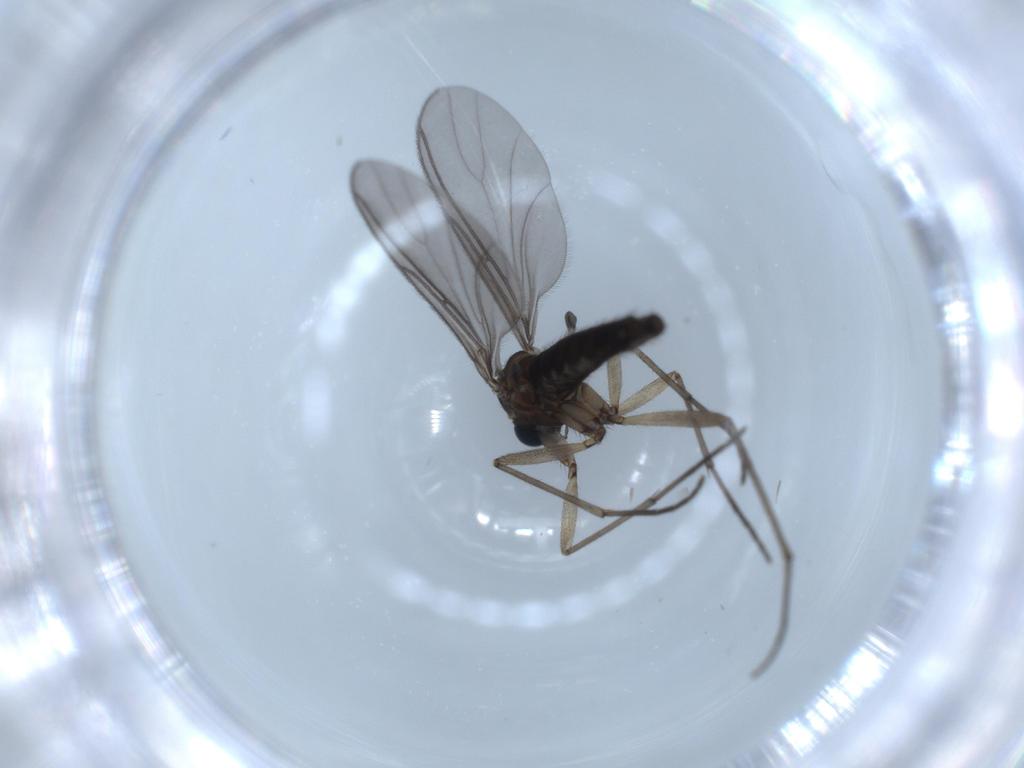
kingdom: Animalia
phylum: Arthropoda
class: Insecta
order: Diptera
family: Sciaridae
